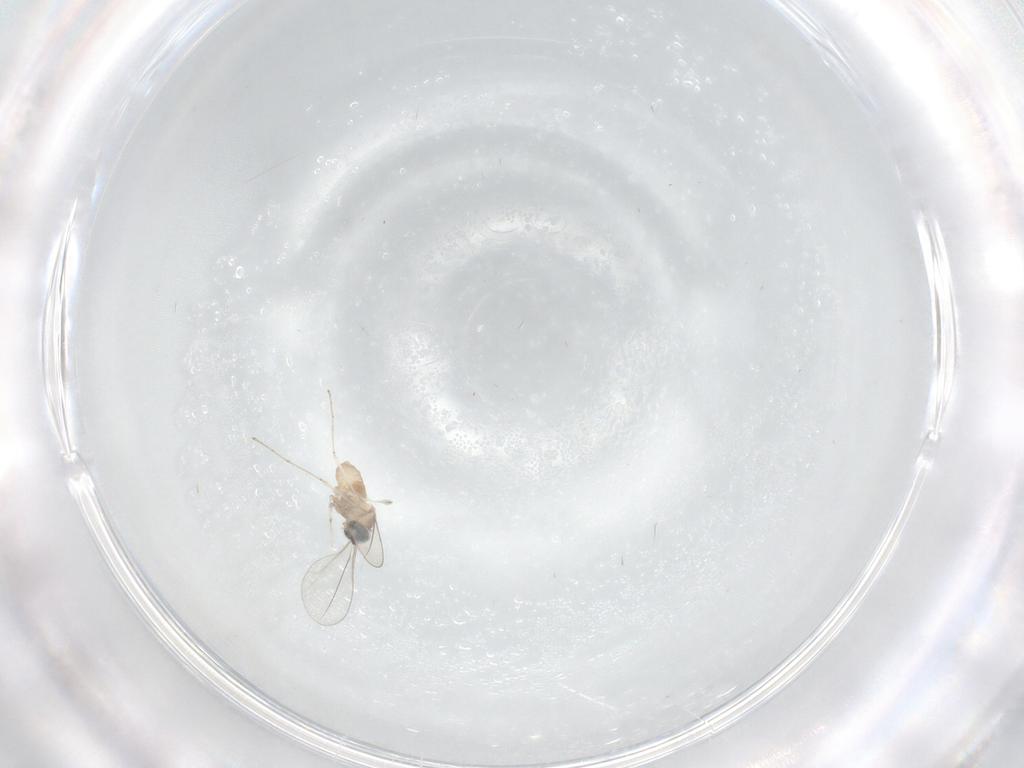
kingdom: Animalia
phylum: Arthropoda
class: Insecta
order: Diptera
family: Cecidomyiidae
